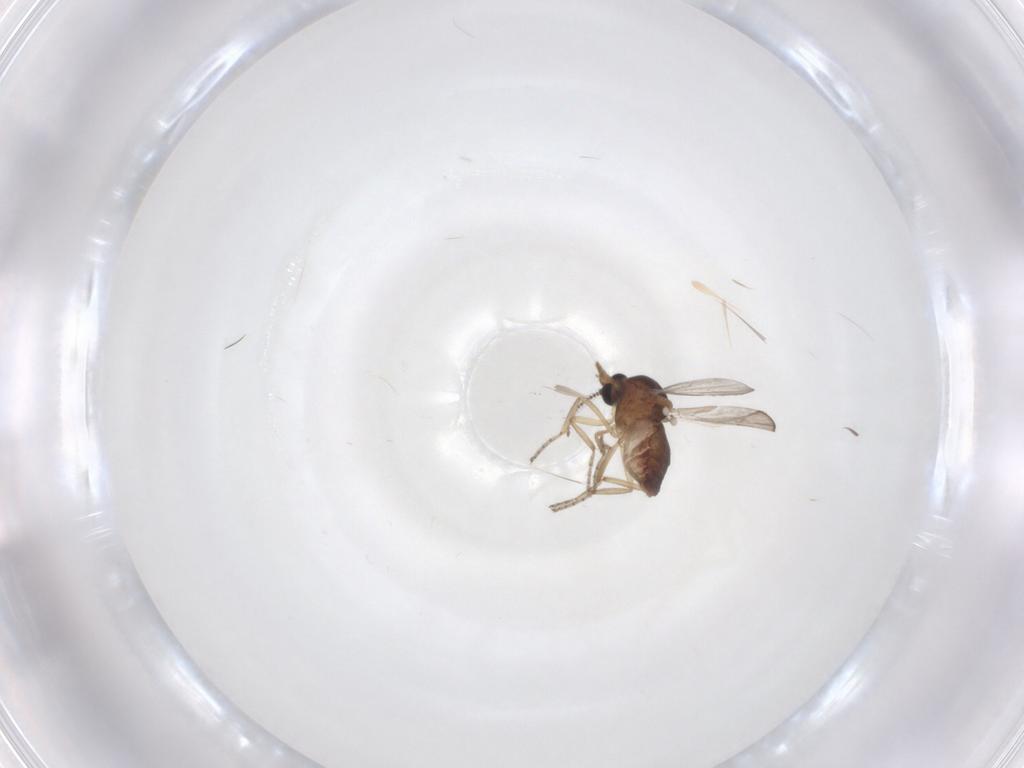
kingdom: Animalia
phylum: Arthropoda
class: Insecta
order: Diptera
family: Ceratopogonidae
